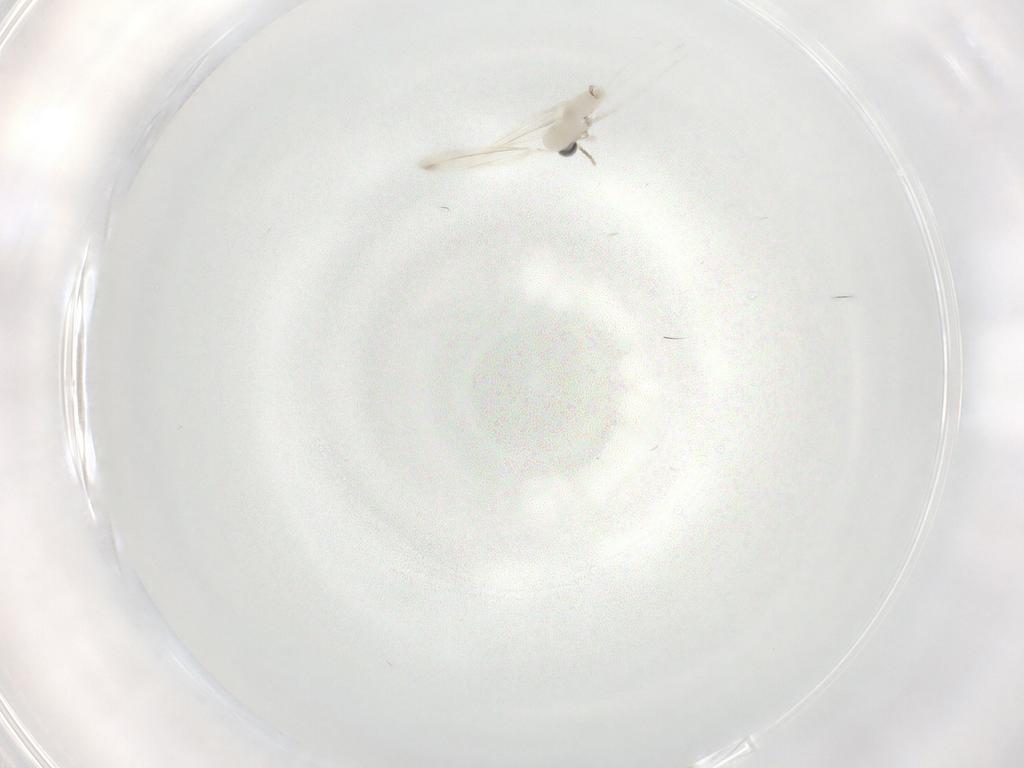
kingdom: Animalia
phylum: Arthropoda
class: Insecta
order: Diptera
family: Cecidomyiidae
